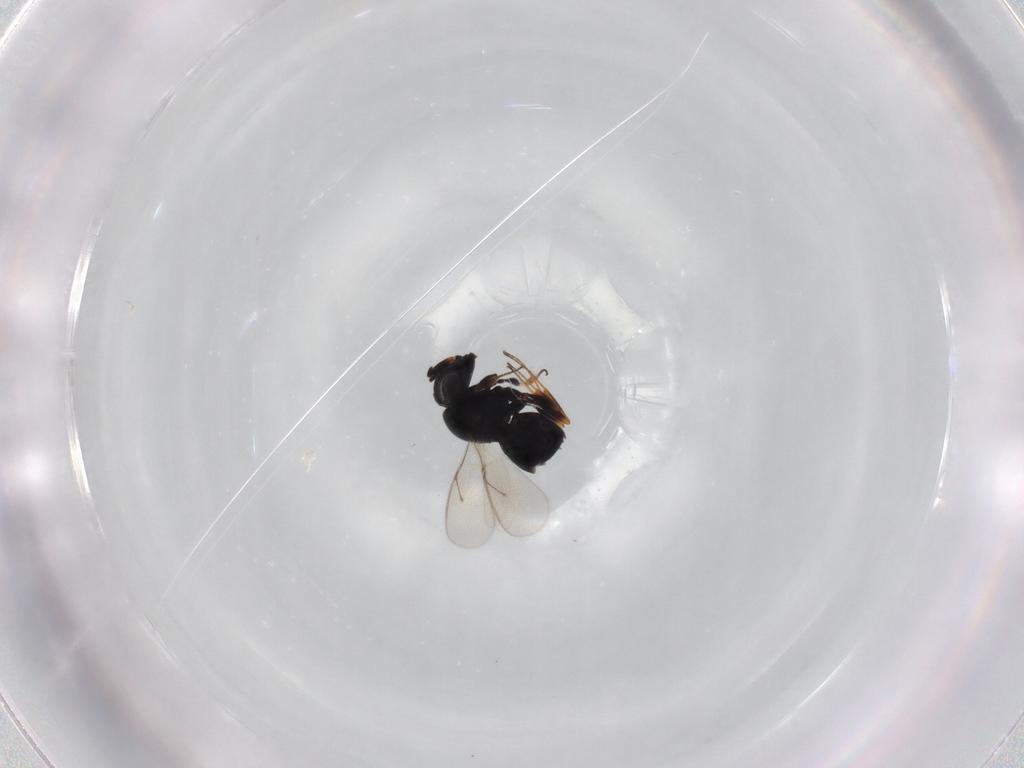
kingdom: Animalia
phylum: Arthropoda
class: Insecta
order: Hymenoptera
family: Scelionidae
